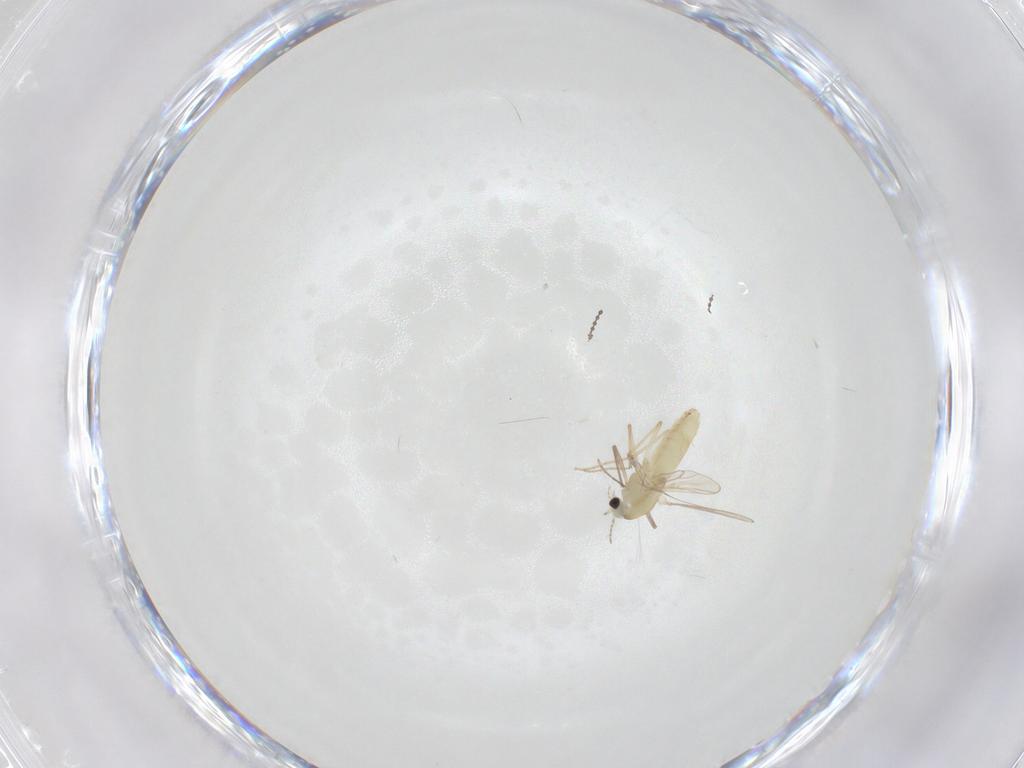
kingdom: Animalia
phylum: Arthropoda
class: Insecta
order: Diptera
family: Chironomidae
